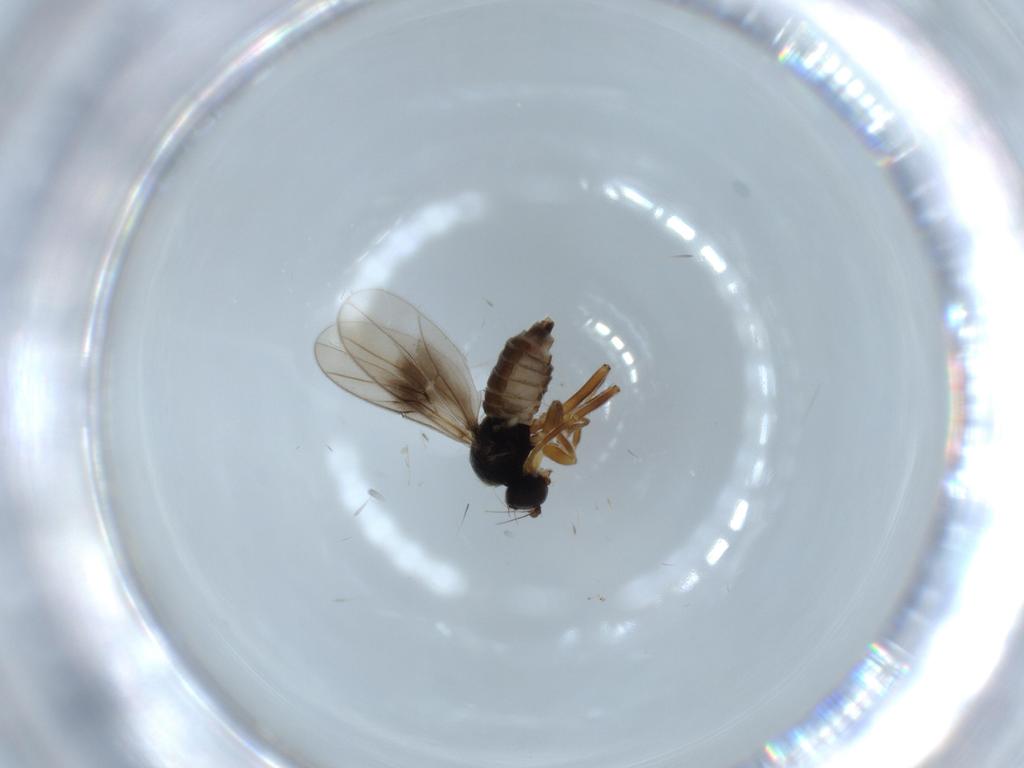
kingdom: Animalia
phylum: Arthropoda
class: Insecta
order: Diptera
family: Hybotidae
